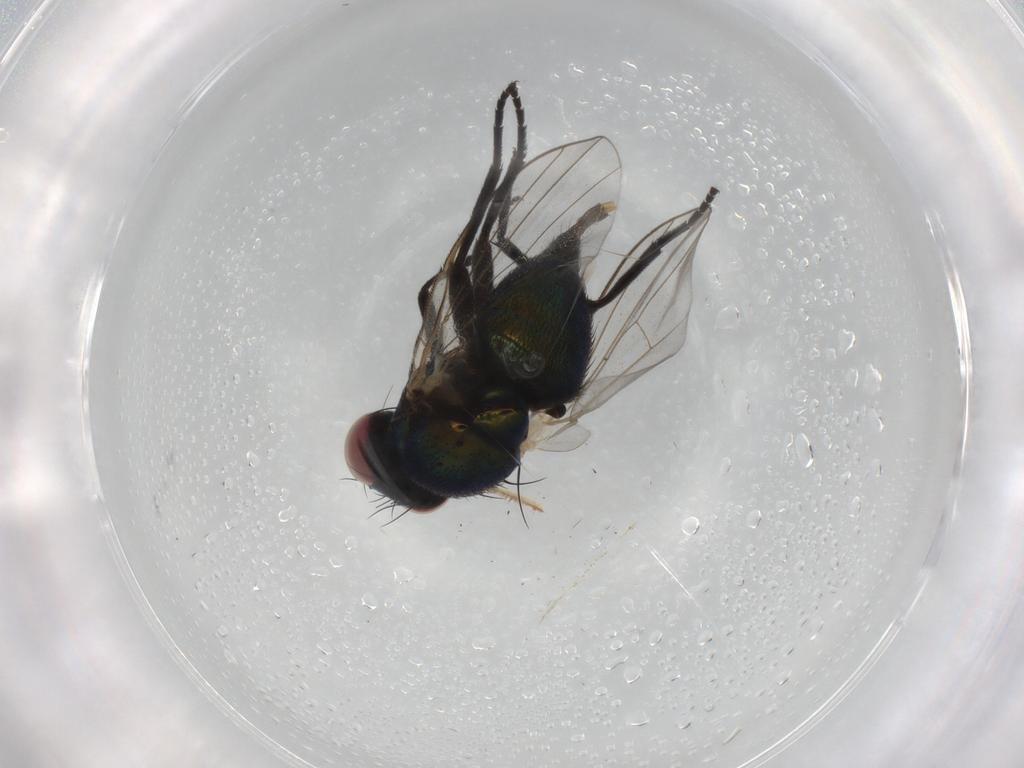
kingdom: Animalia
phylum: Arthropoda
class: Insecta
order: Diptera
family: Agromyzidae
